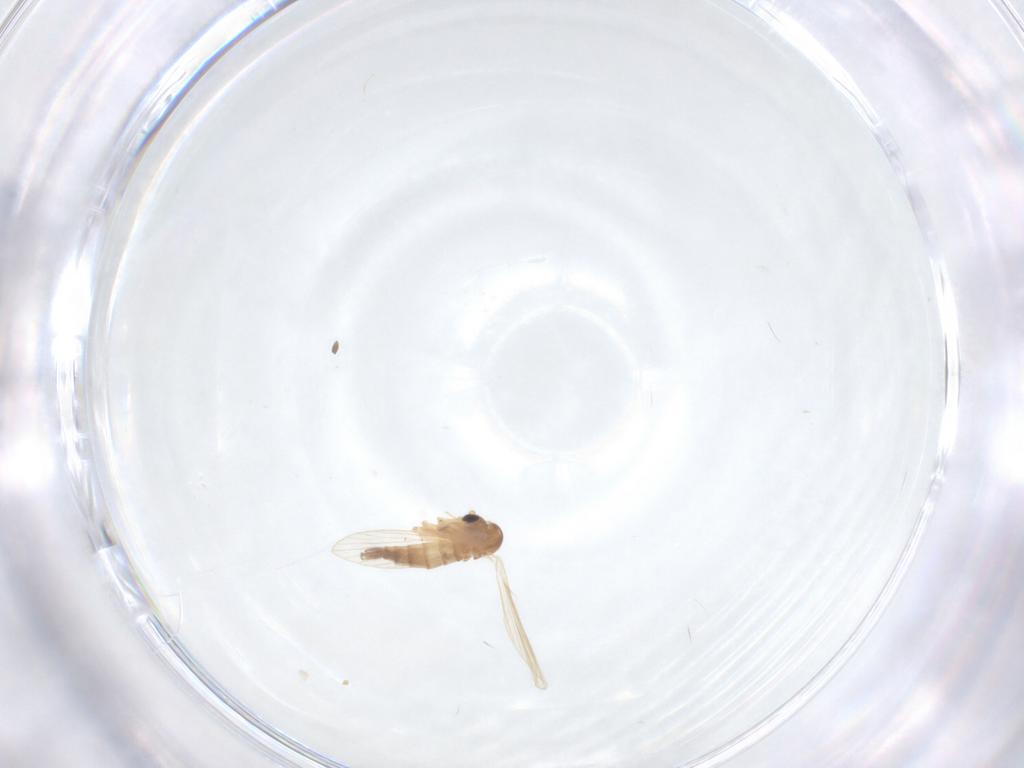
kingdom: Animalia
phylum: Arthropoda
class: Insecta
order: Diptera
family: Psychodidae
